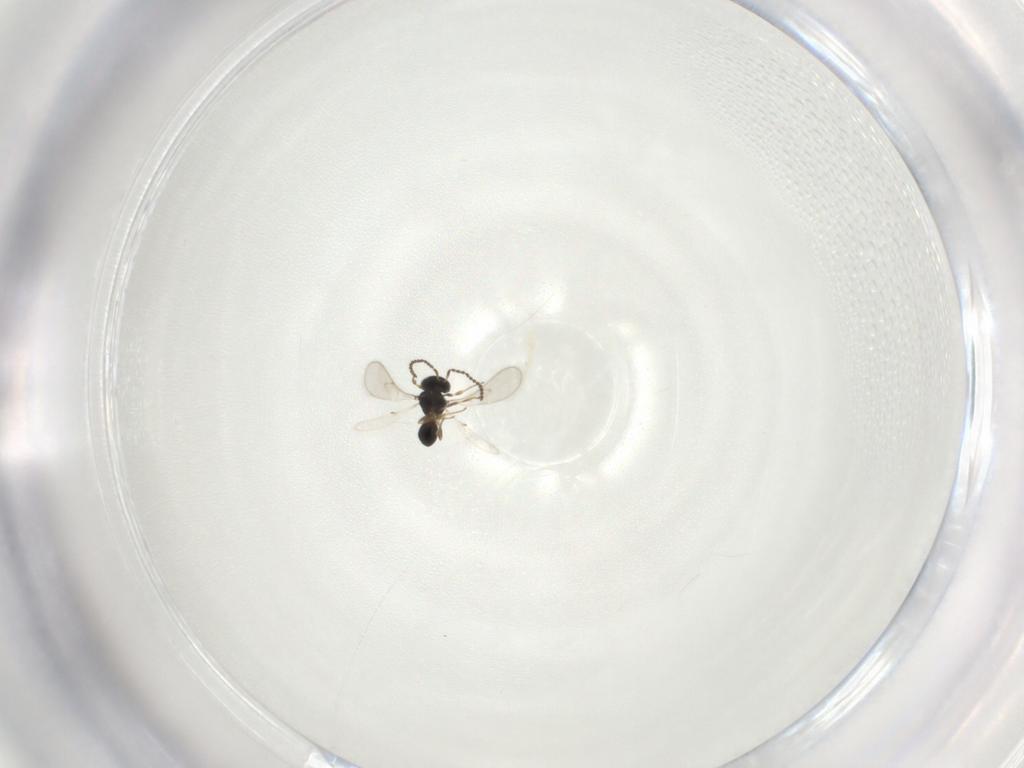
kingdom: Animalia
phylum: Arthropoda
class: Insecta
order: Hymenoptera
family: Scelionidae
